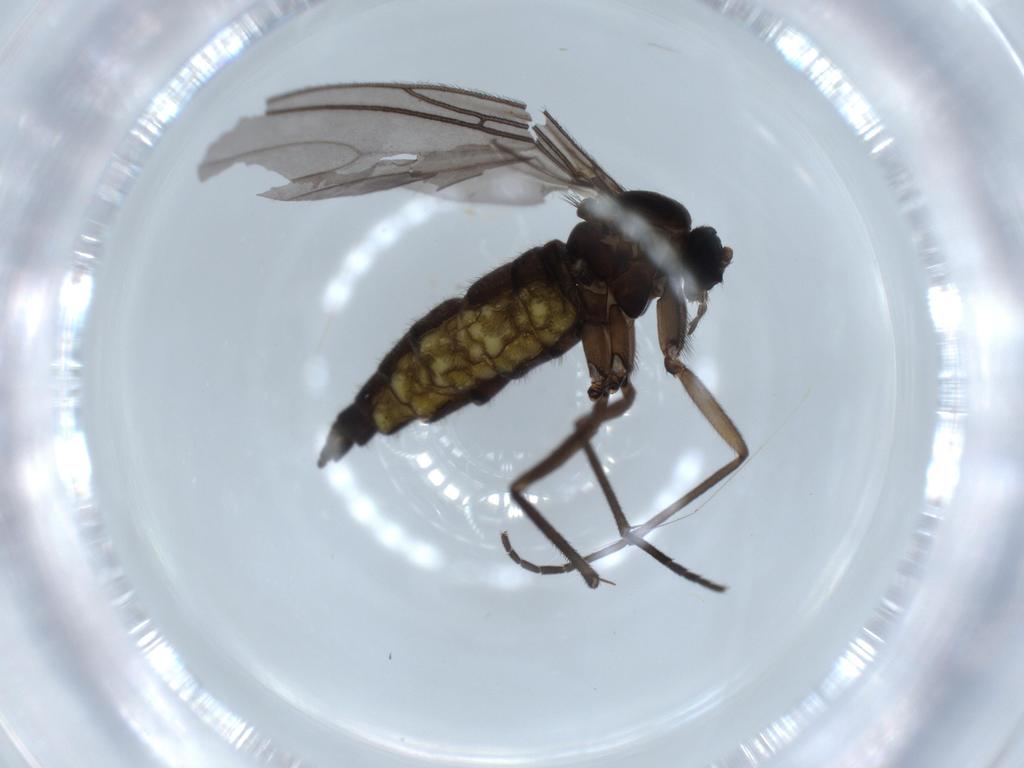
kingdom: Animalia
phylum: Arthropoda
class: Insecta
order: Diptera
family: Sciaridae
